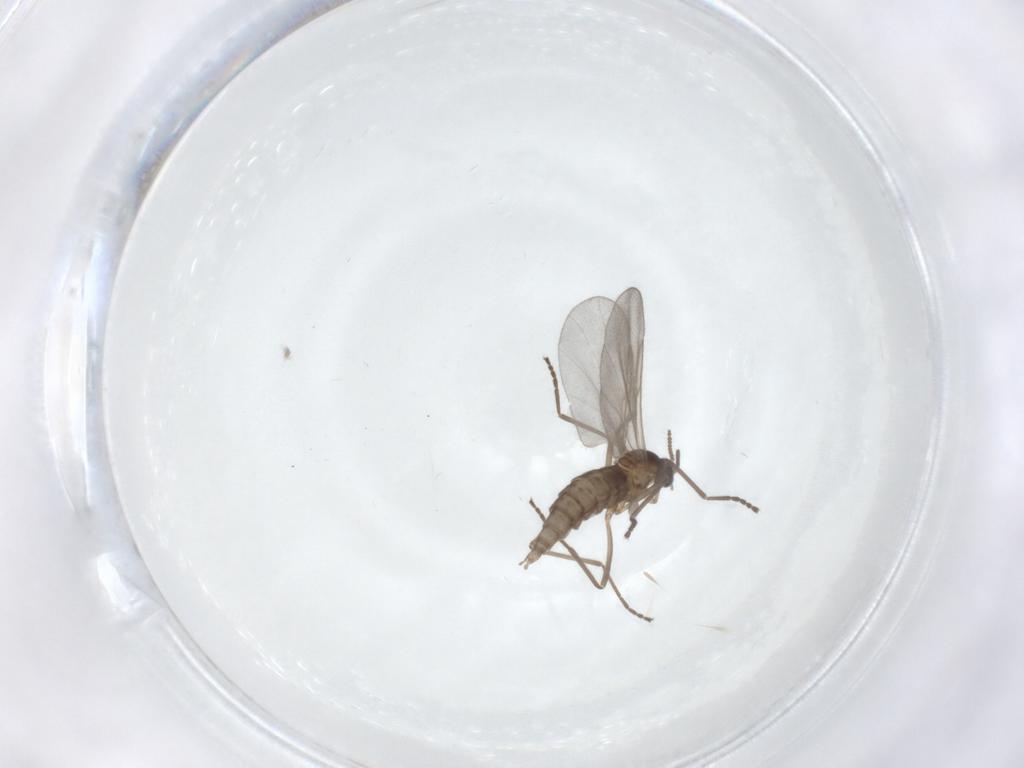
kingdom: Animalia
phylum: Arthropoda
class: Insecta
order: Diptera
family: Cecidomyiidae
